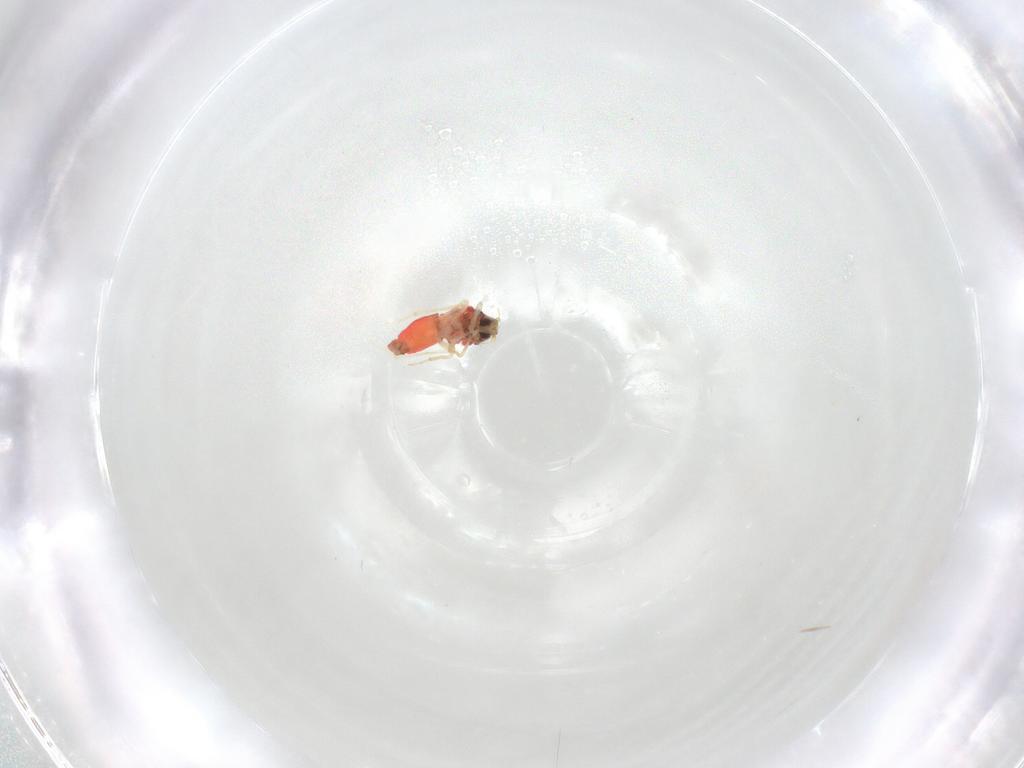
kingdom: Animalia
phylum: Arthropoda
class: Insecta
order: Hemiptera
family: Aleyrodidae
